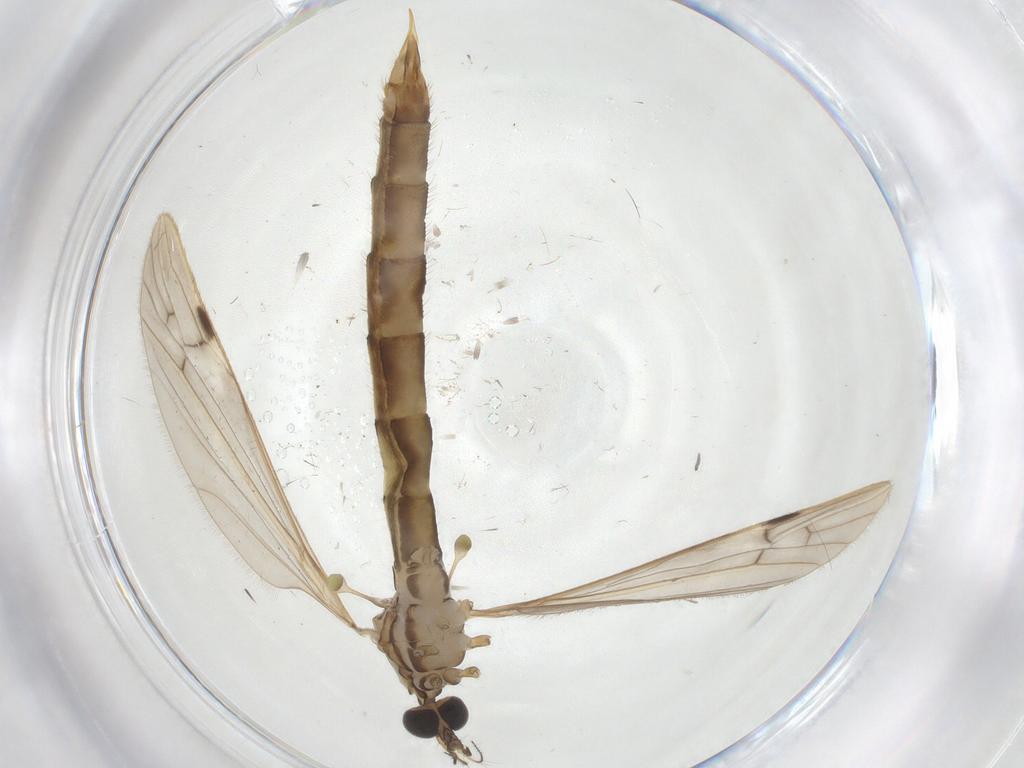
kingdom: Animalia
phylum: Arthropoda
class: Insecta
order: Diptera
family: Limoniidae
